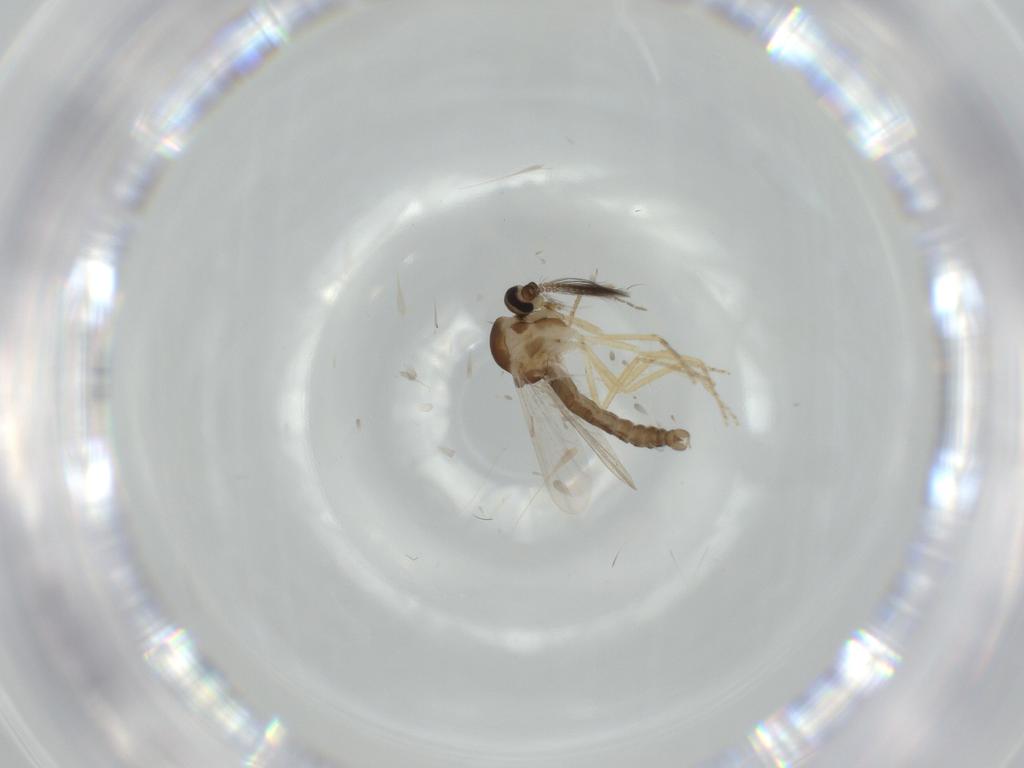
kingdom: Animalia
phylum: Arthropoda
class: Insecta
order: Diptera
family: Ceratopogonidae
